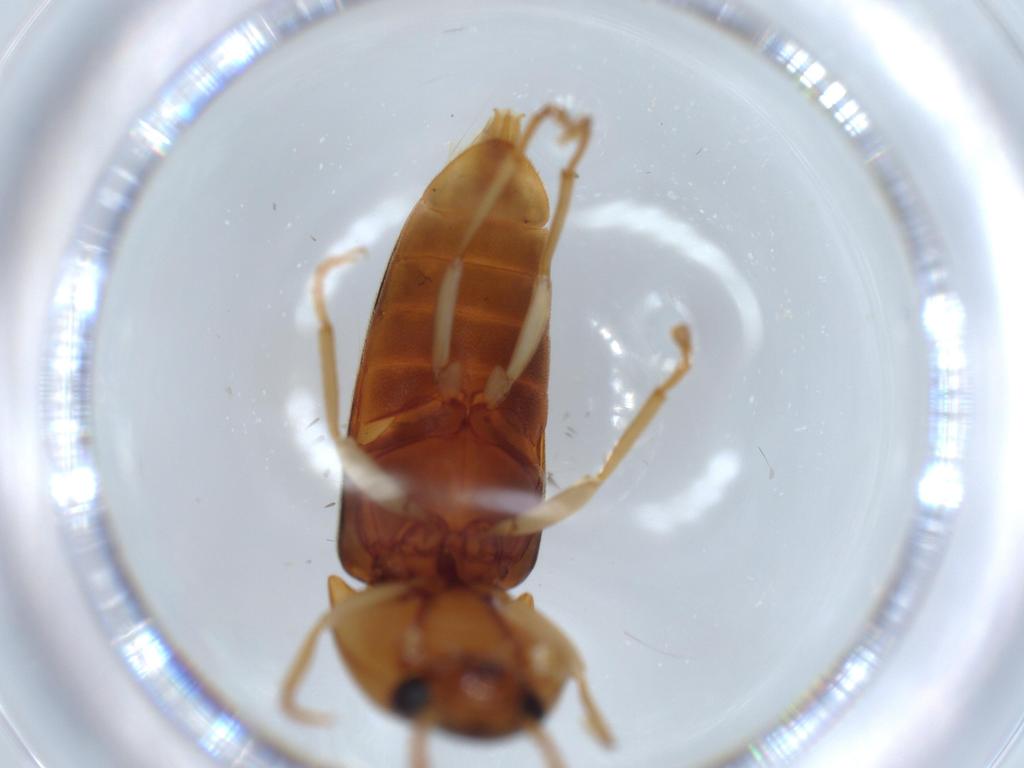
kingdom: Animalia
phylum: Arthropoda
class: Insecta
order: Coleoptera
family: Elateridae
